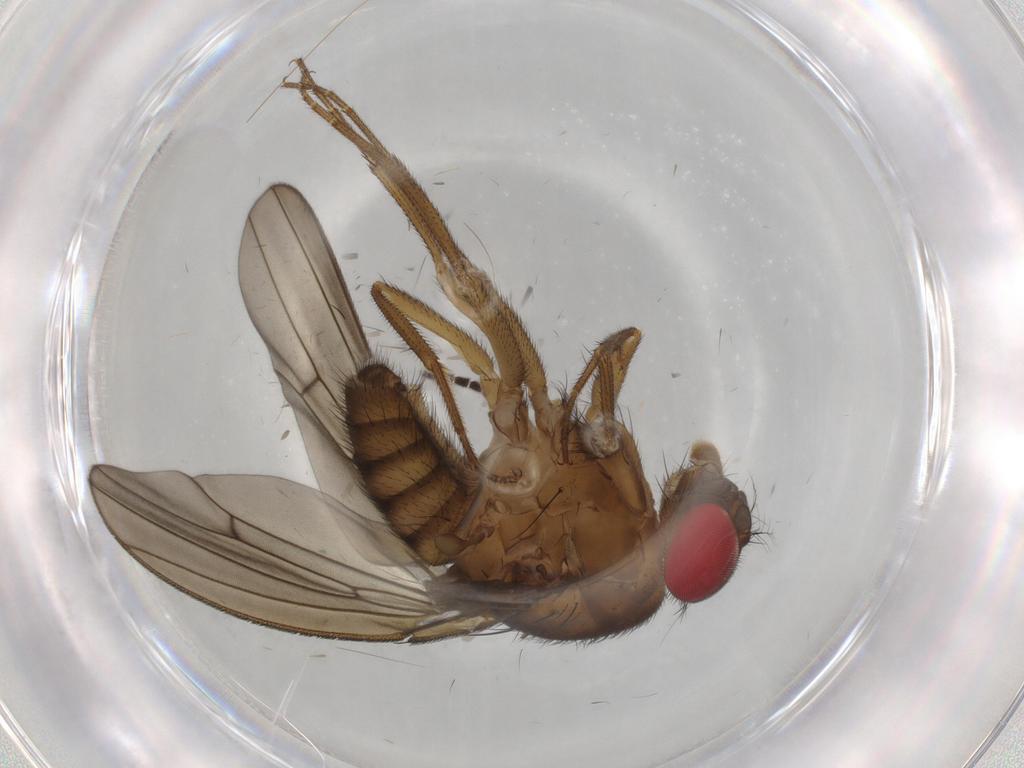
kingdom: Animalia
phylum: Arthropoda
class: Insecta
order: Diptera
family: Drosophilidae
